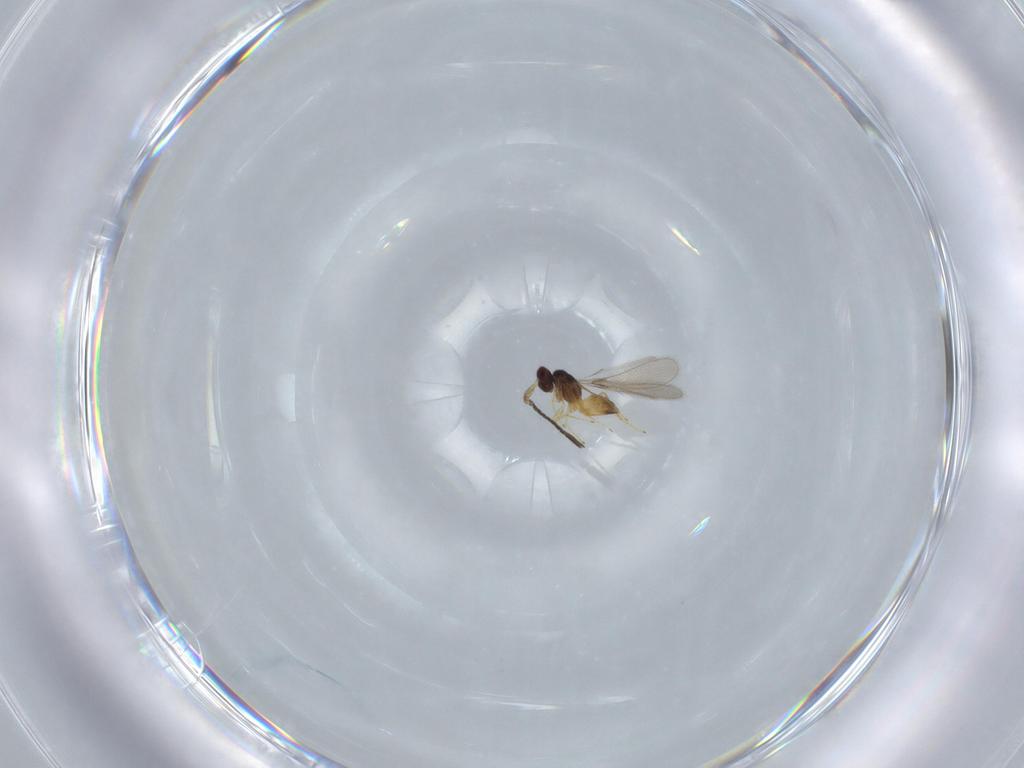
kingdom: Animalia
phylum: Arthropoda
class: Insecta
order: Hymenoptera
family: Mymaridae
